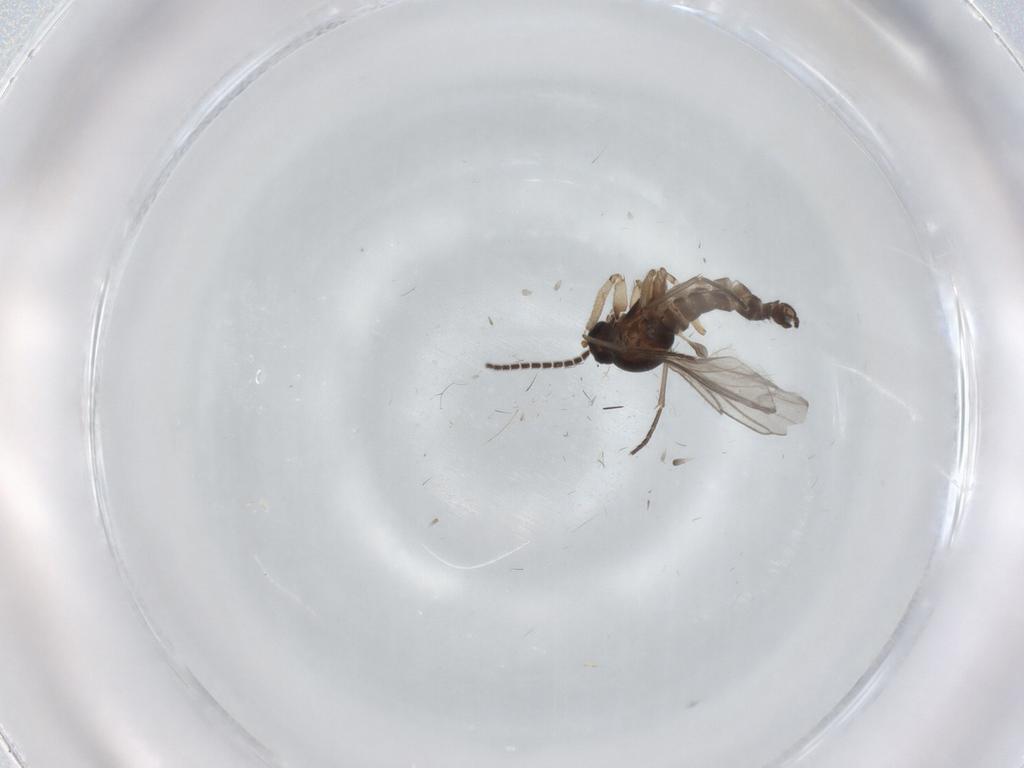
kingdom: Animalia
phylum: Arthropoda
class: Insecta
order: Diptera
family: Sciaridae
